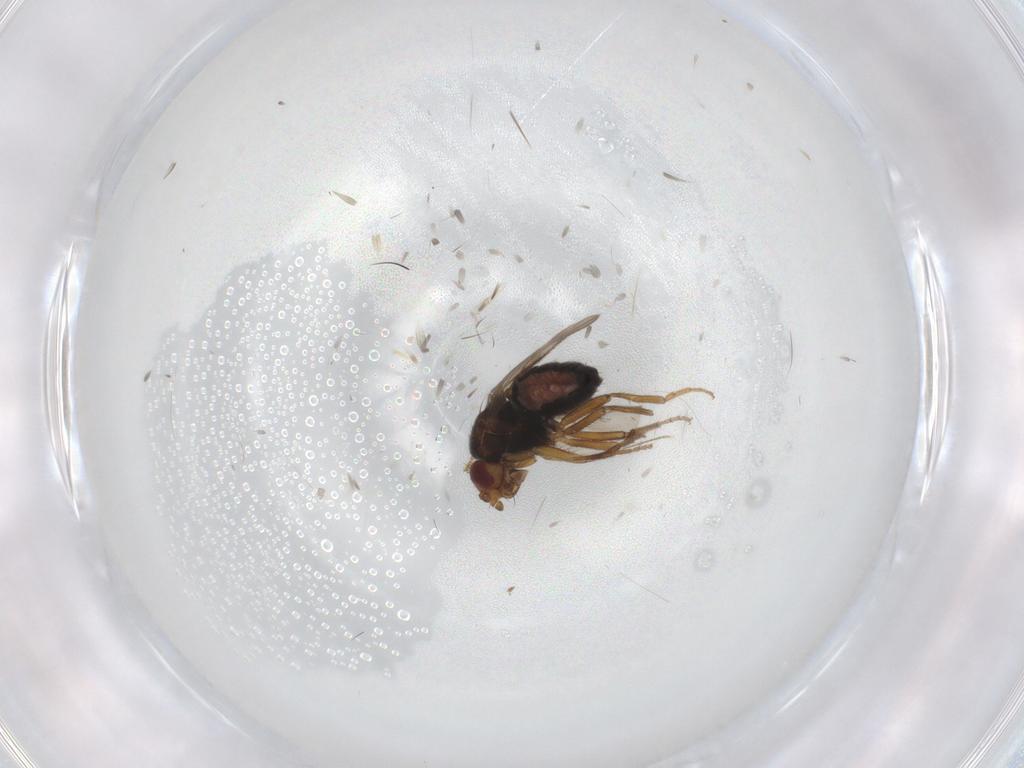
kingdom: Animalia
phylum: Arthropoda
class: Insecta
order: Diptera
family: Sphaeroceridae
